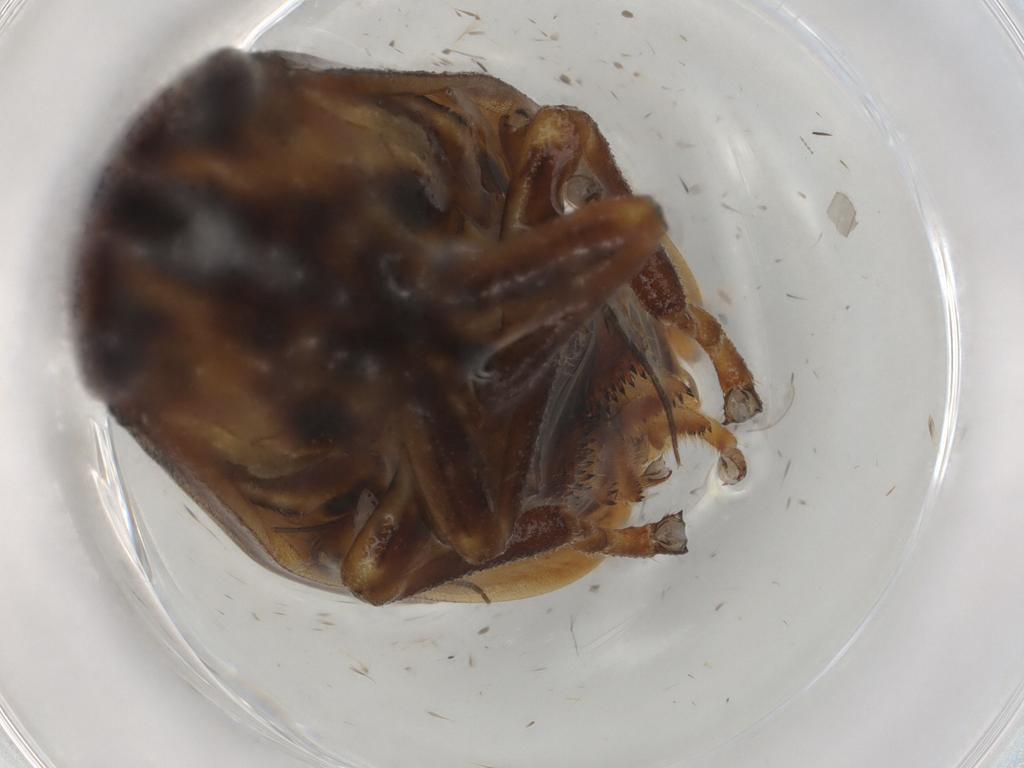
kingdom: Animalia
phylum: Arthropoda
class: Insecta
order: Hemiptera
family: Aphrophoridae
